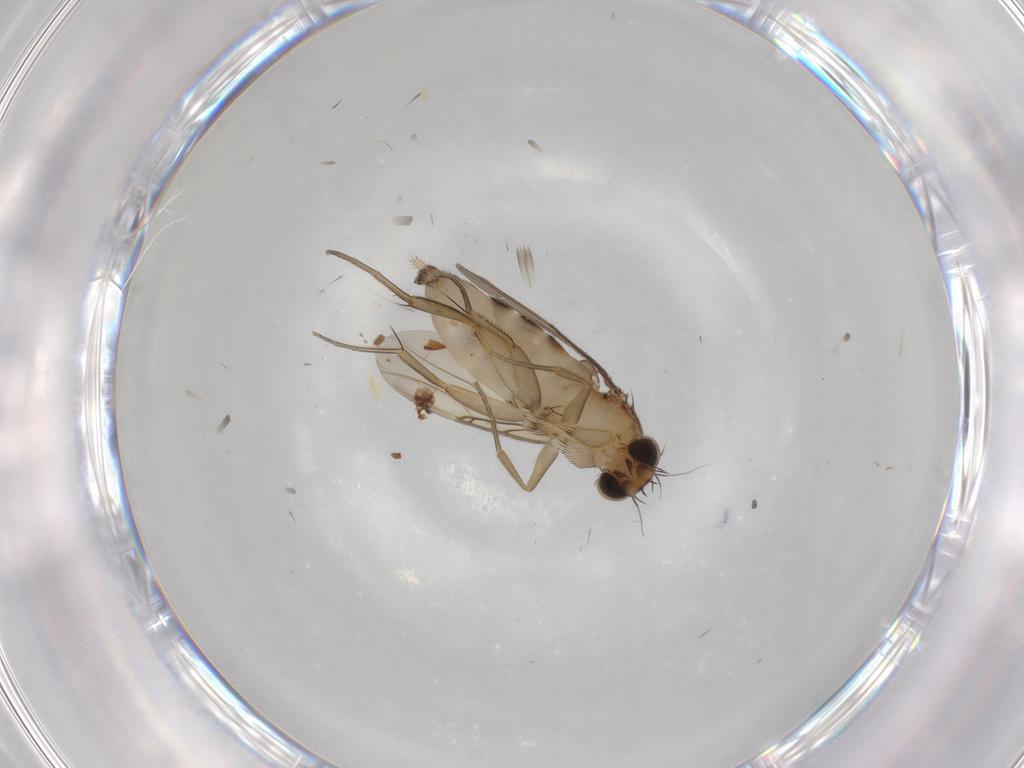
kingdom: Animalia
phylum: Arthropoda
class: Insecta
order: Diptera
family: Phoridae
